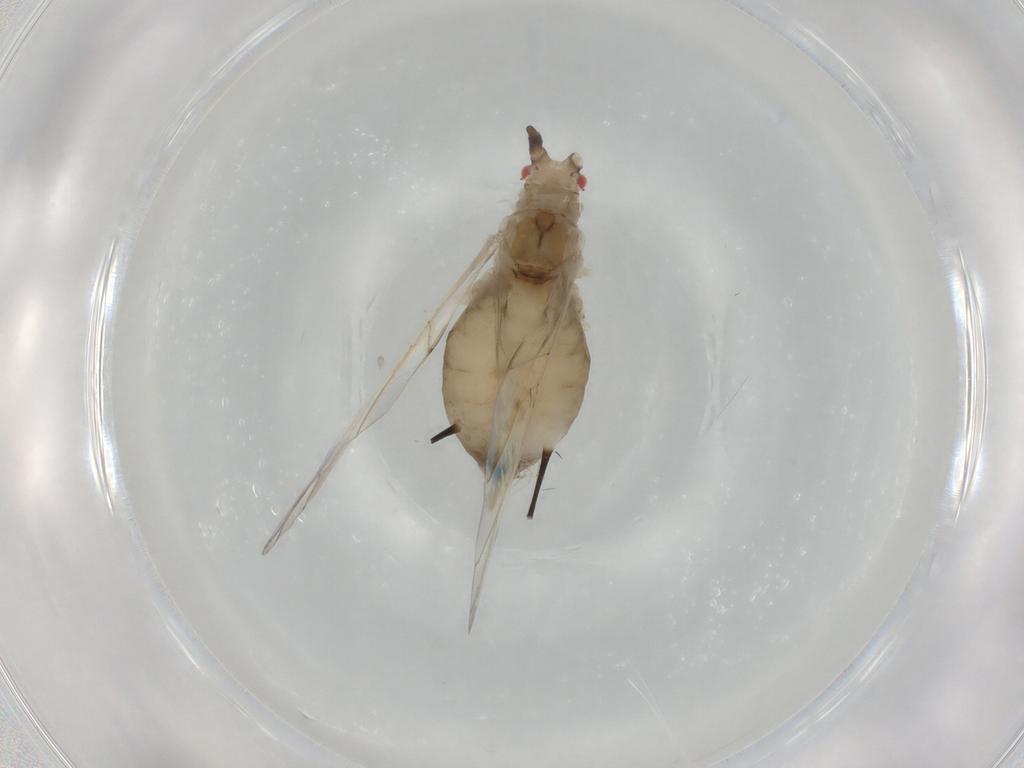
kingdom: Animalia
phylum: Arthropoda
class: Insecta
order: Hemiptera
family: Aphididae
